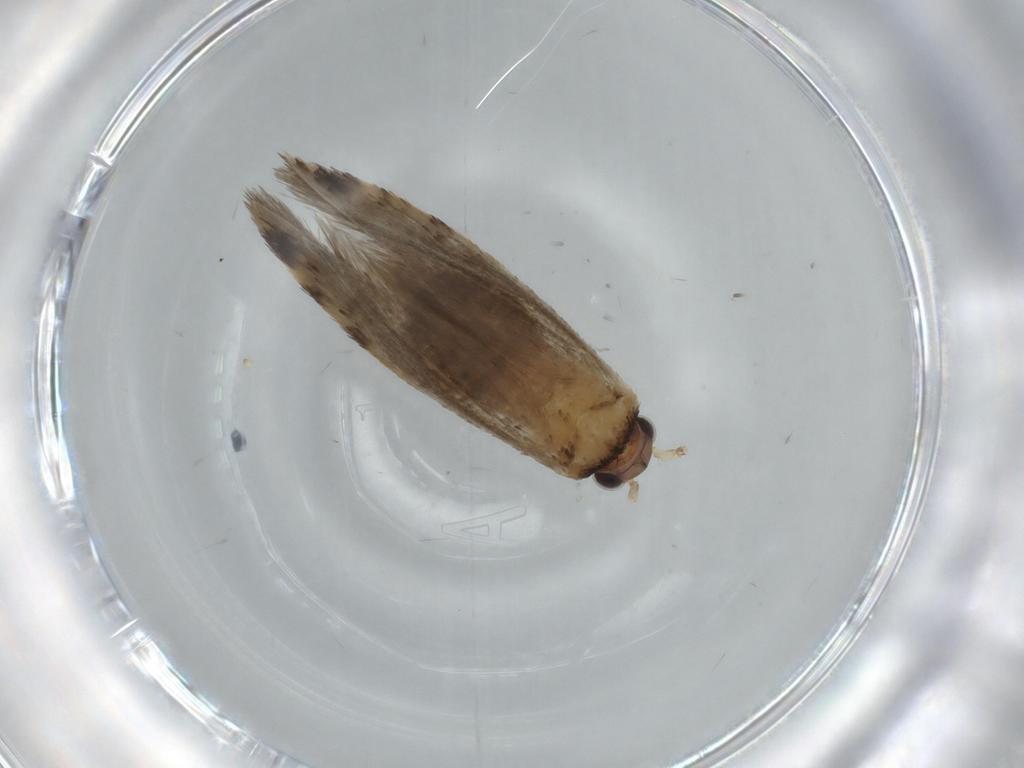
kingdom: Animalia
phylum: Arthropoda
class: Insecta
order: Lepidoptera
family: Tineidae
